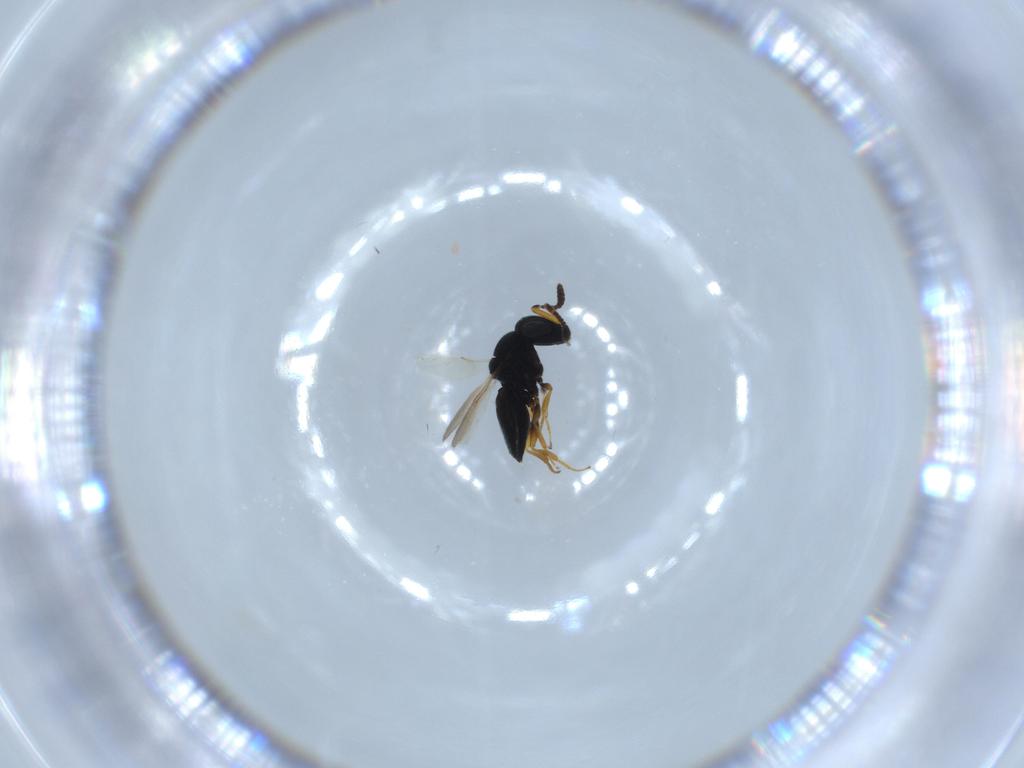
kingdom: Animalia
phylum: Arthropoda
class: Insecta
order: Hymenoptera
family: Scelionidae
